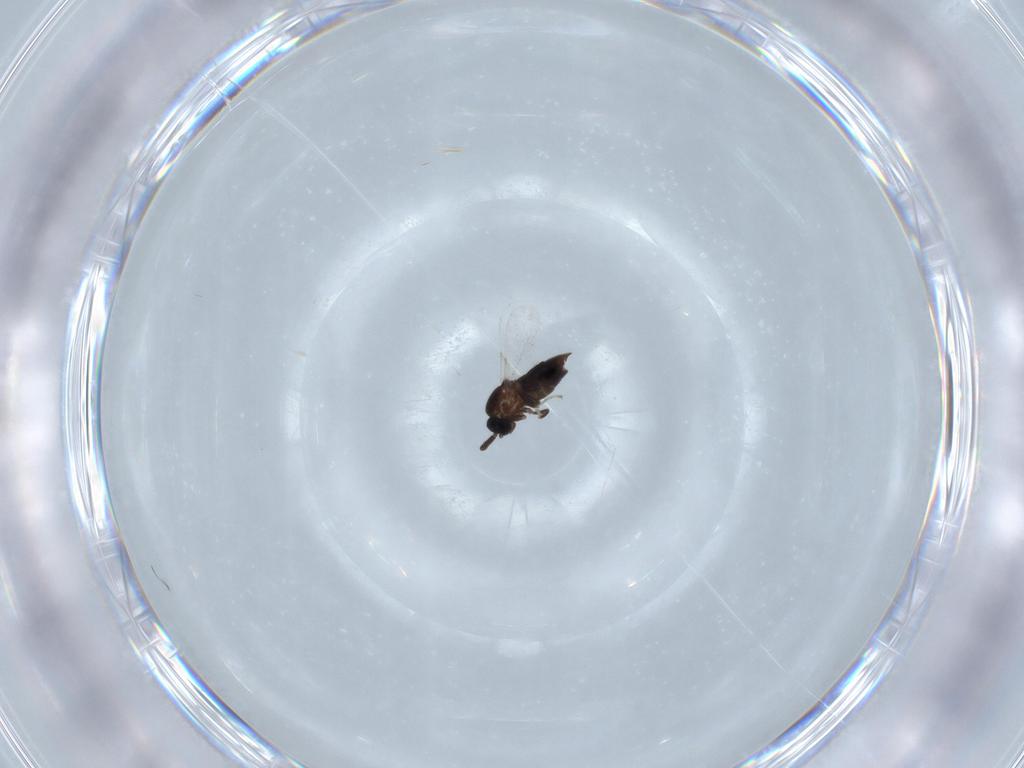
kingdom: Animalia
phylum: Arthropoda
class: Insecta
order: Diptera
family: Scatopsidae
